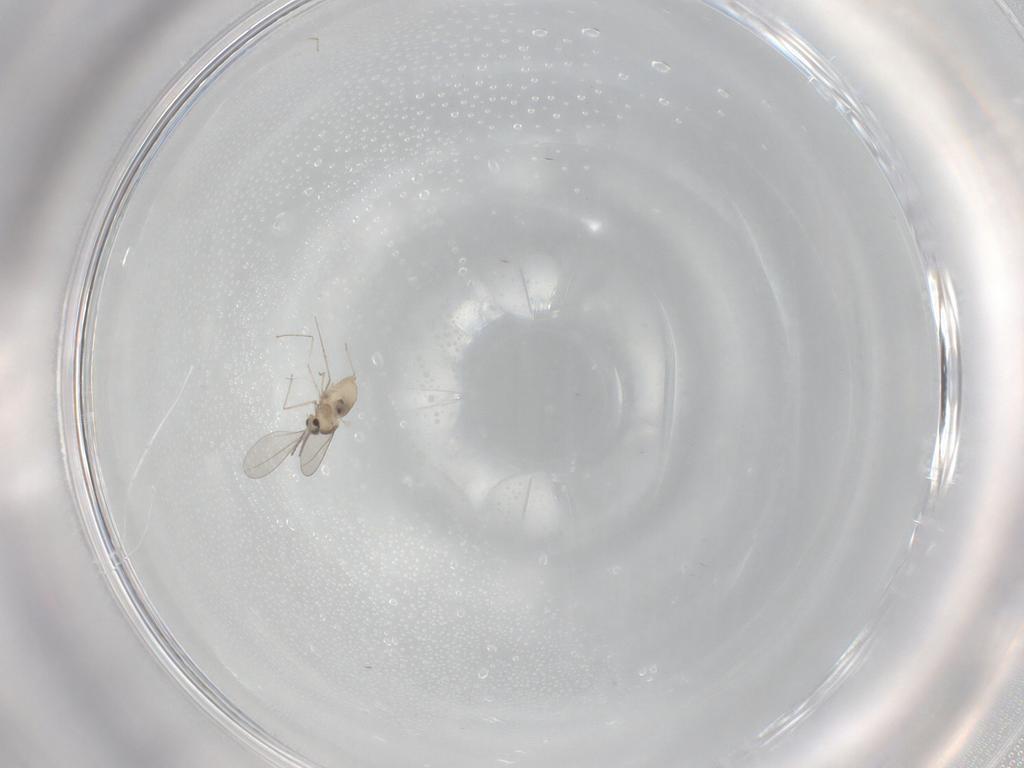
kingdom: Animalia
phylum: Arthropoda
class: Insecta
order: Diptera
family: Cecidomyiidae
